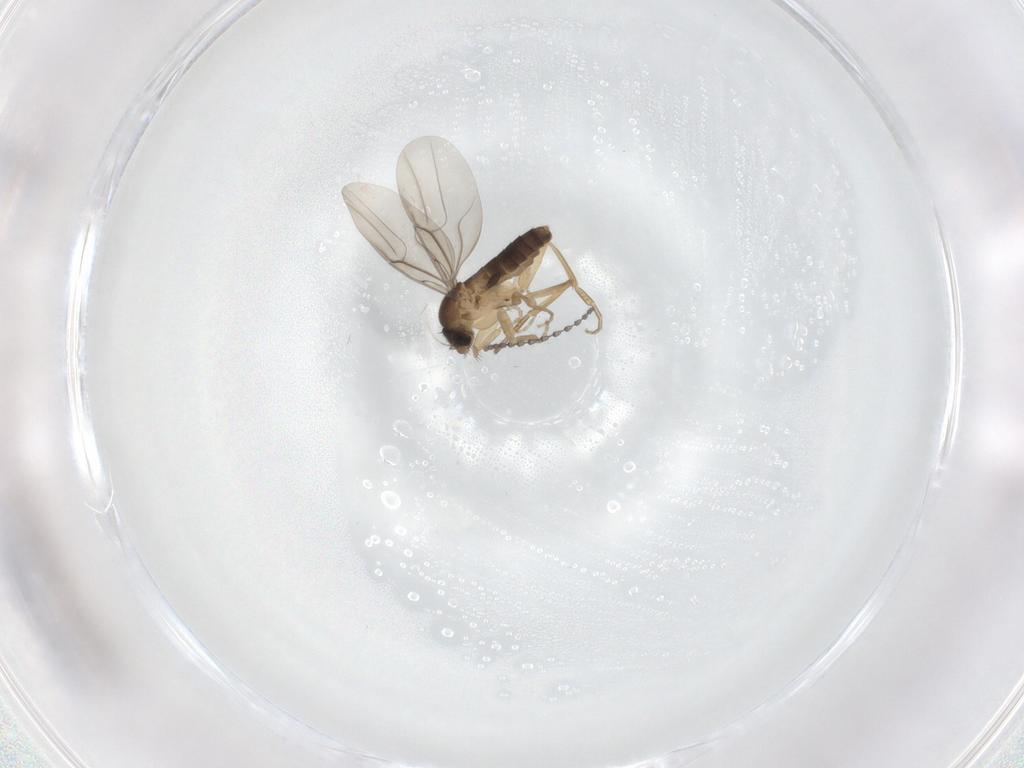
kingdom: Animalia
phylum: Arthropoda
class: Insecta
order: Diptera
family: Phoridae
